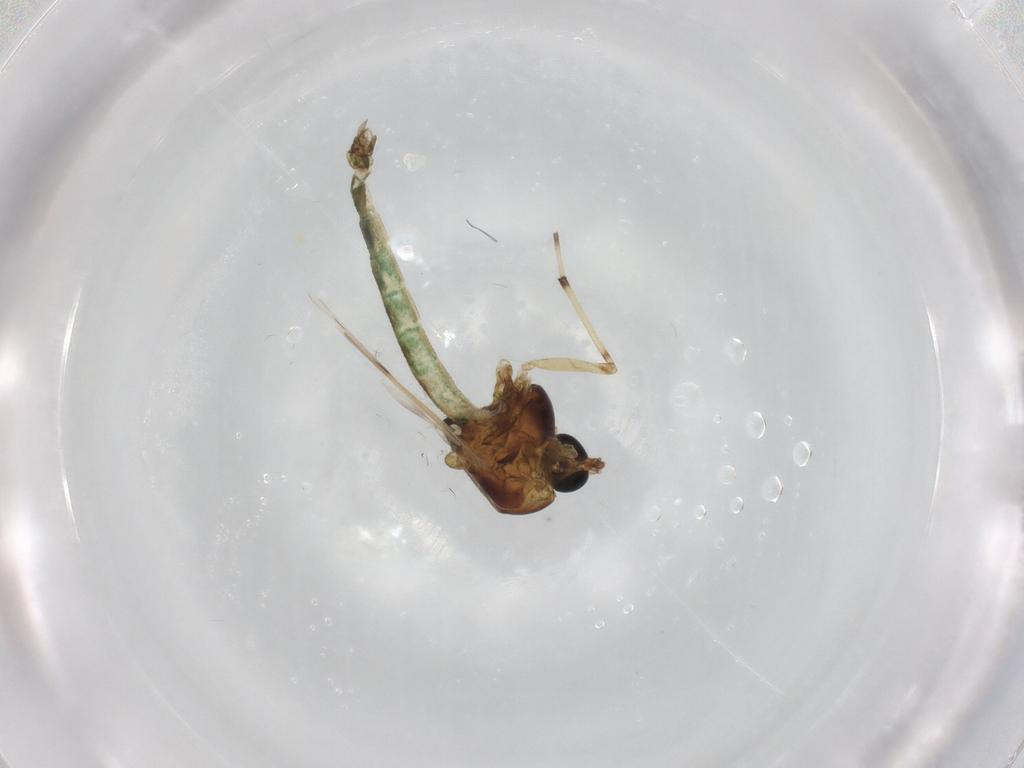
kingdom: Animalia
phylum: Arthropoda
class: Insecta
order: Diptera
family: Chironomidae
